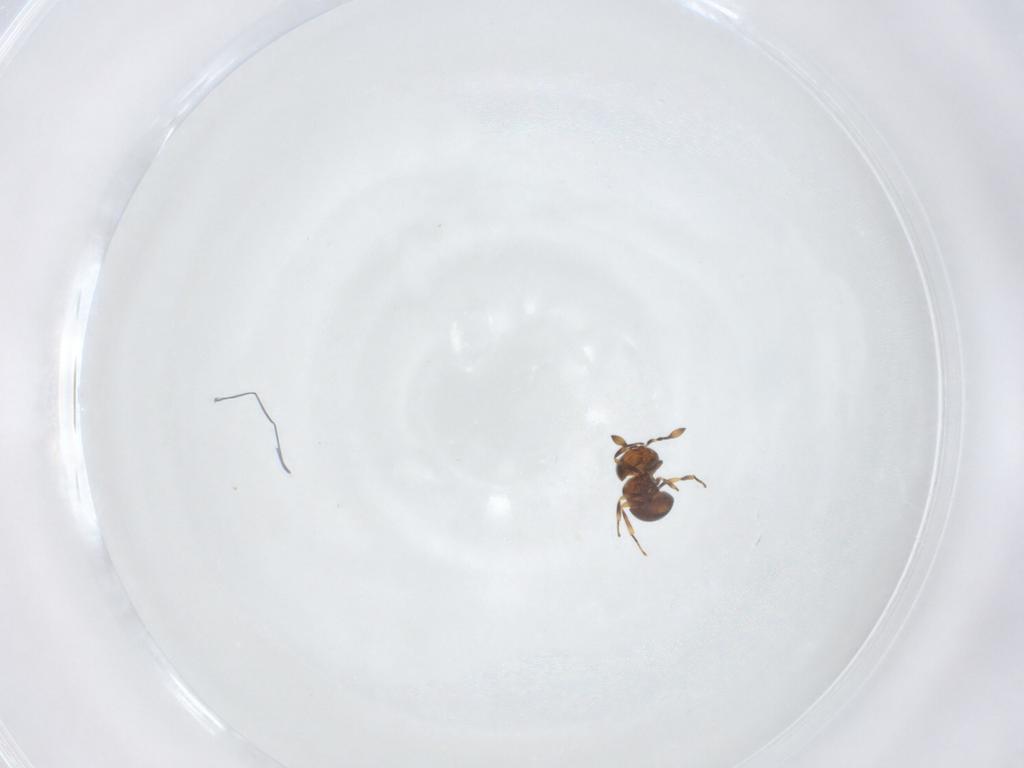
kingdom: Animalia
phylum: Arthropoda
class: Insecta
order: Hymenoptera
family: Scelionidae
